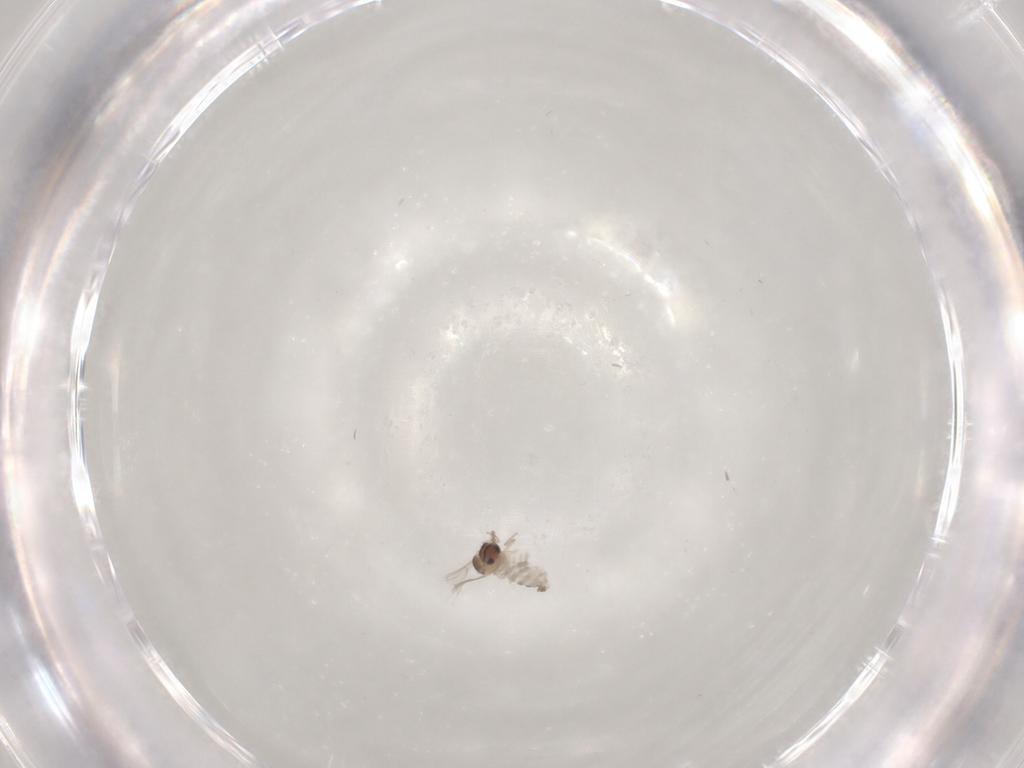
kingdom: Animalia
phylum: Arthropoda
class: Insecta
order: Diptera
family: Cecidomyiidae
